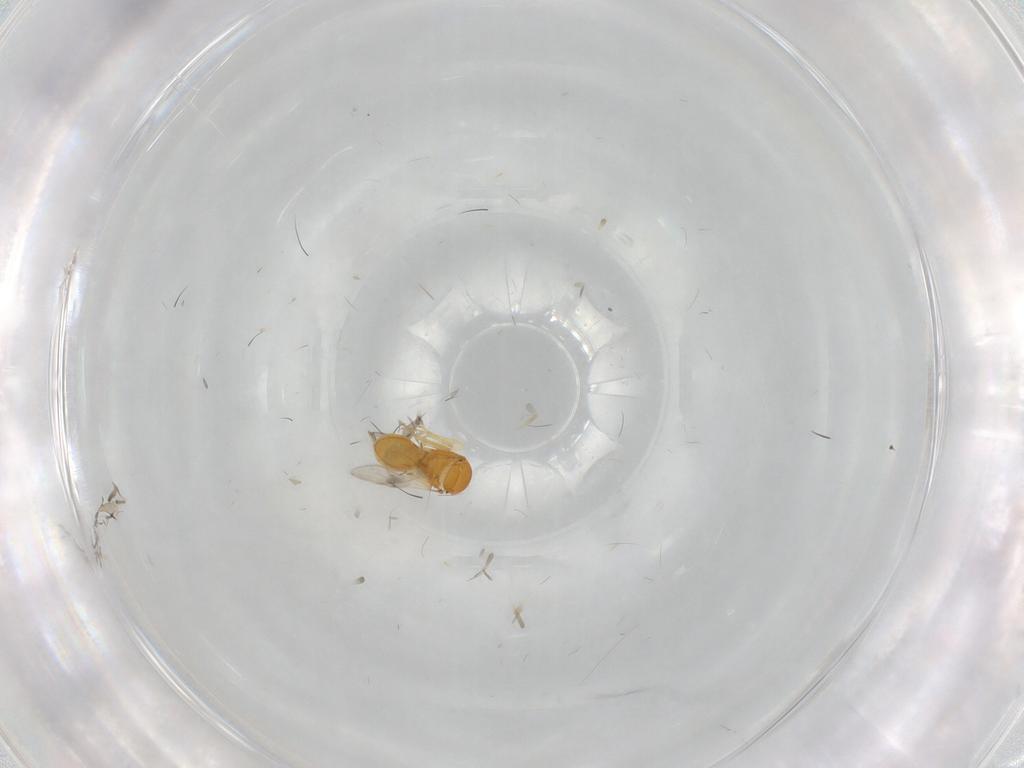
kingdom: Animalia
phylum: Arthropoda
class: Insecta
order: Hymenoptera
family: Scelionidae
